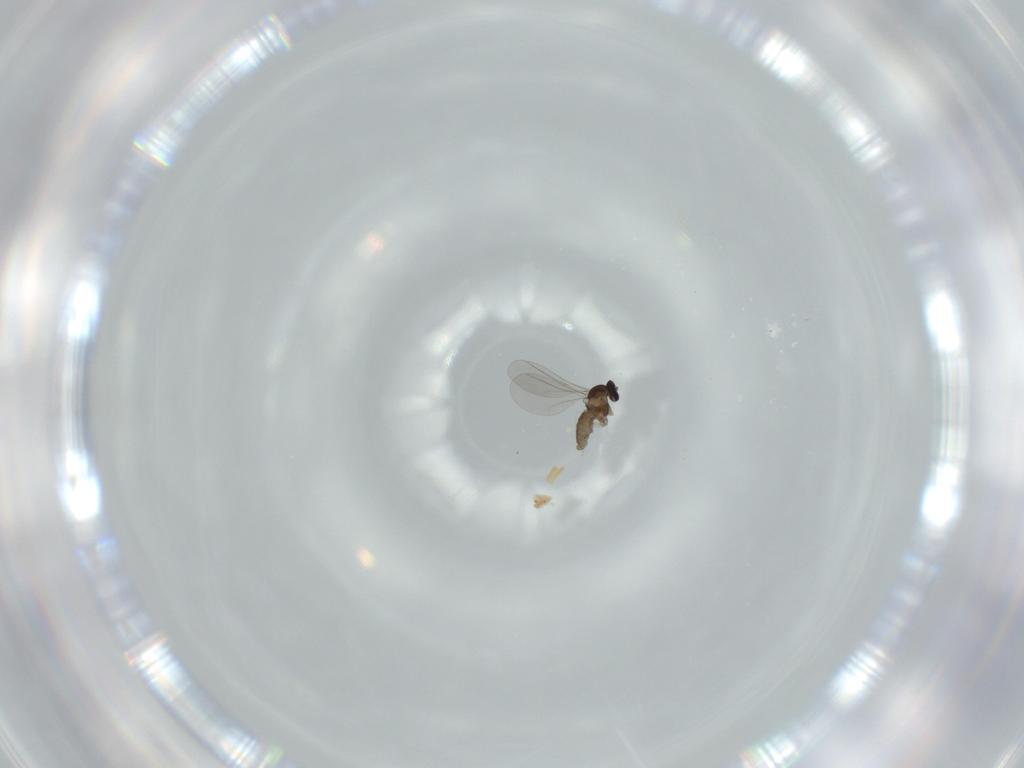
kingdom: Animalia
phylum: Arthropoda
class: Insecta
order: Diptera
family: Cecidomyiidae
